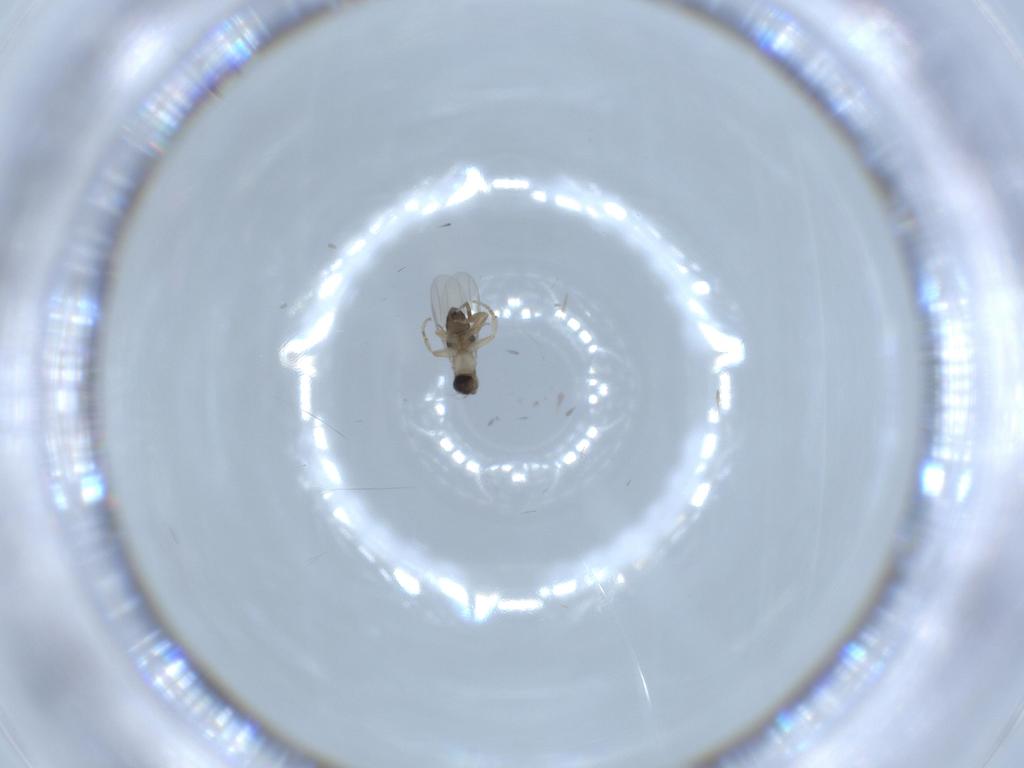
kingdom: Animalia
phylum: Arthropoda
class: Insecta
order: Diptera
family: Phoridae
